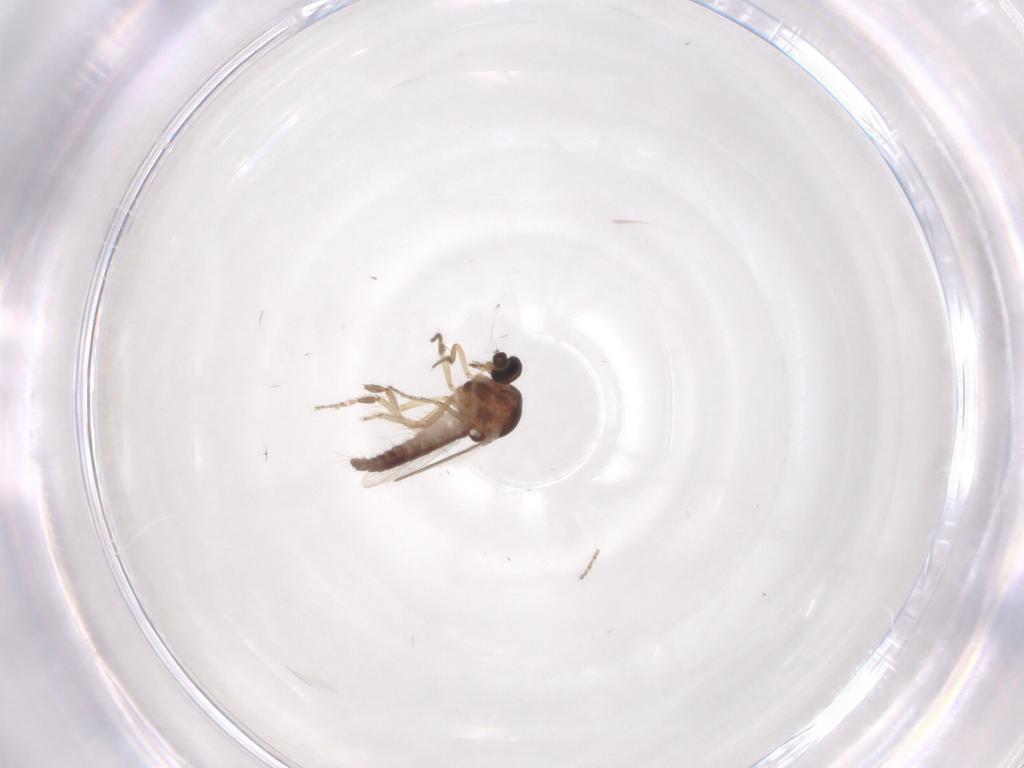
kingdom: Animalia
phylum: Arthropoda
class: Insecta
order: Diptera
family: Ceratopogonidae
